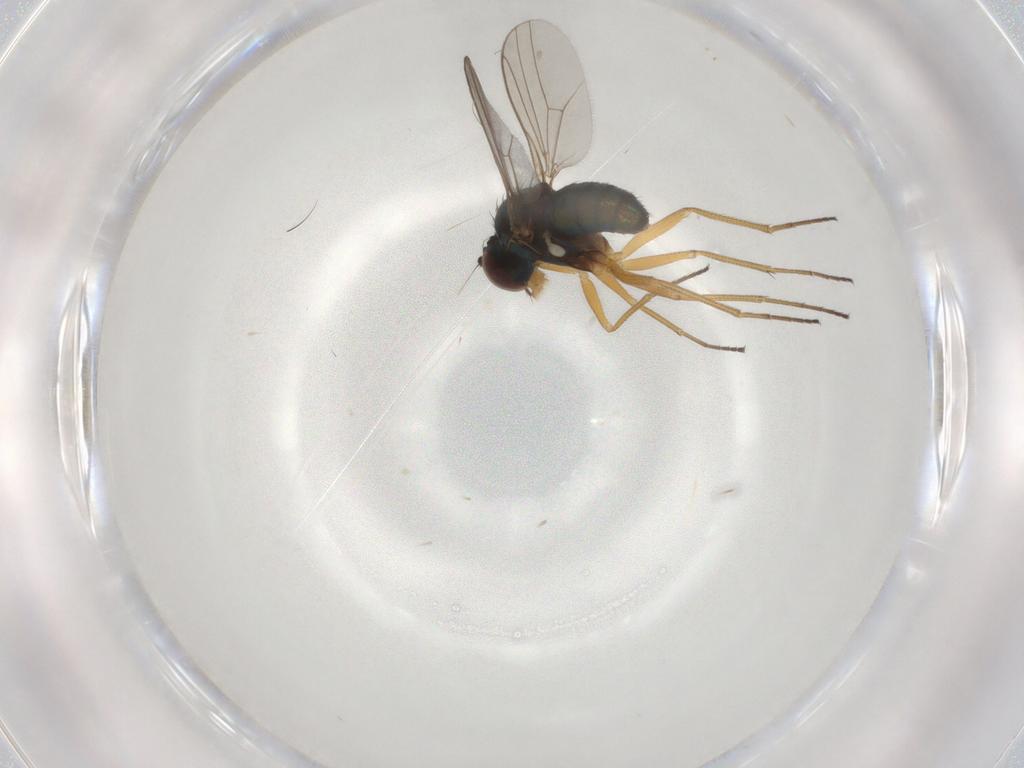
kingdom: Animalia
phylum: Arthropoda
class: Insecta
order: Diptera
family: Dolichopodidae
